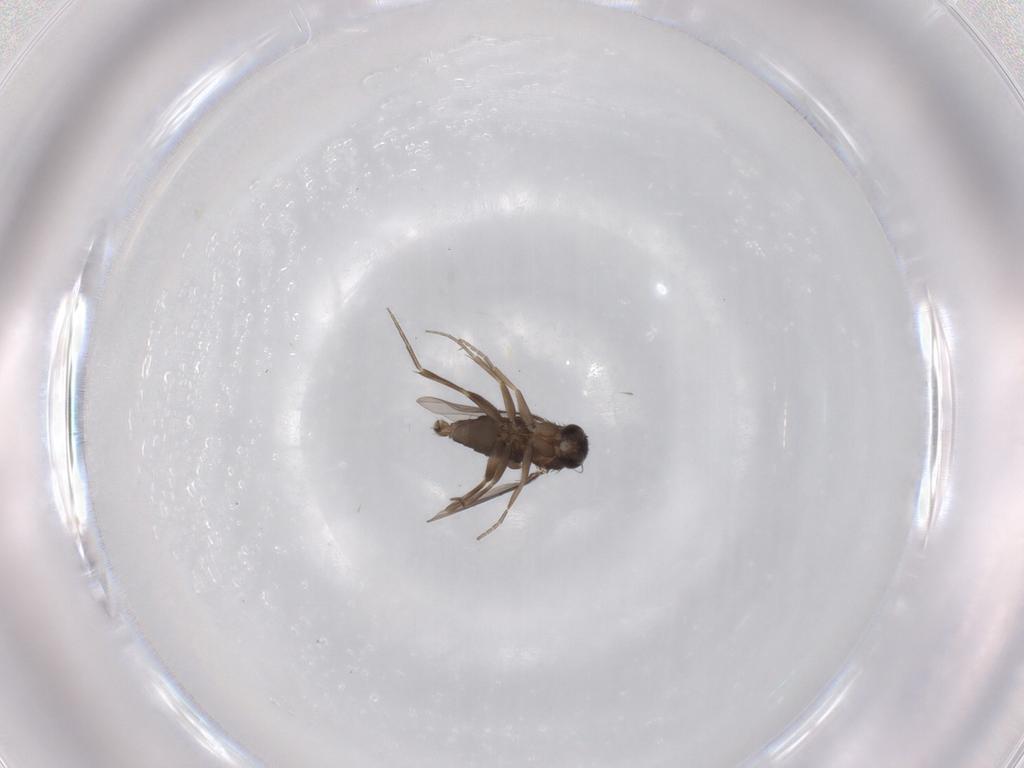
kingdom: Animalia
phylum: Arthropoda
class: Insecta
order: Diptera
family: Phoridae
